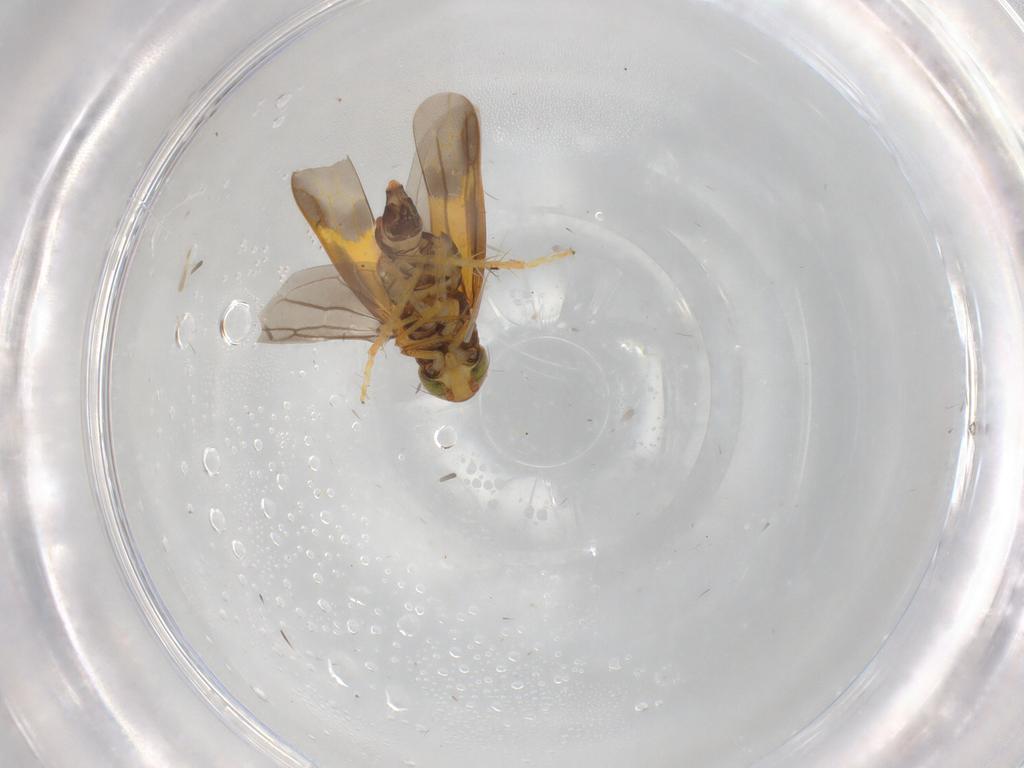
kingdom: Animalia
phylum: Arthropoda
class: Insecta
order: Hemiptera
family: Cicadellidae
